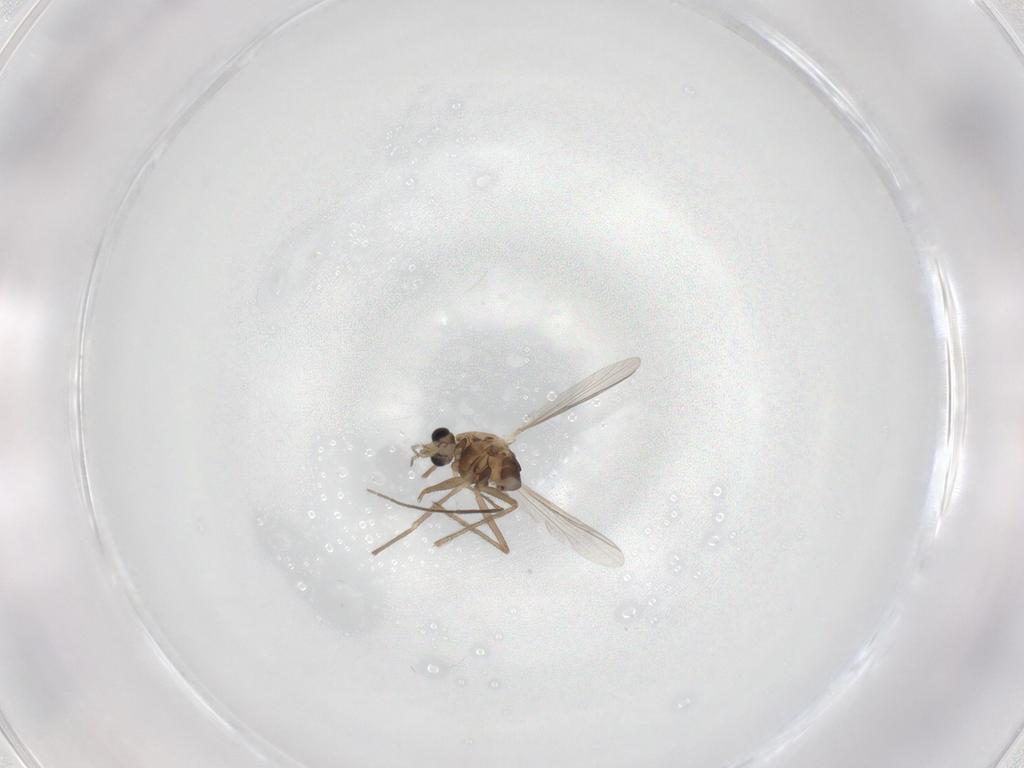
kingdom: Animalia
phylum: Arthropoda
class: Insecta
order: Diptera
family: Chironomidae
